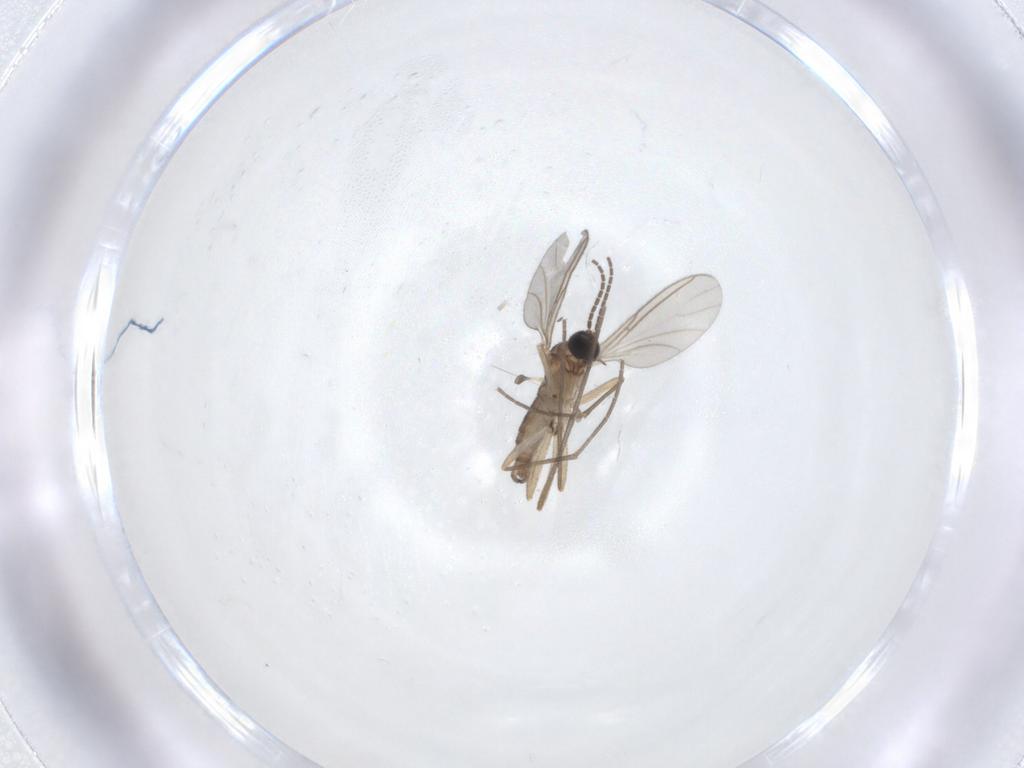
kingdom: Animalia
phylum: Arthropoda
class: Insecta
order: Diptera
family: Sciaridae
